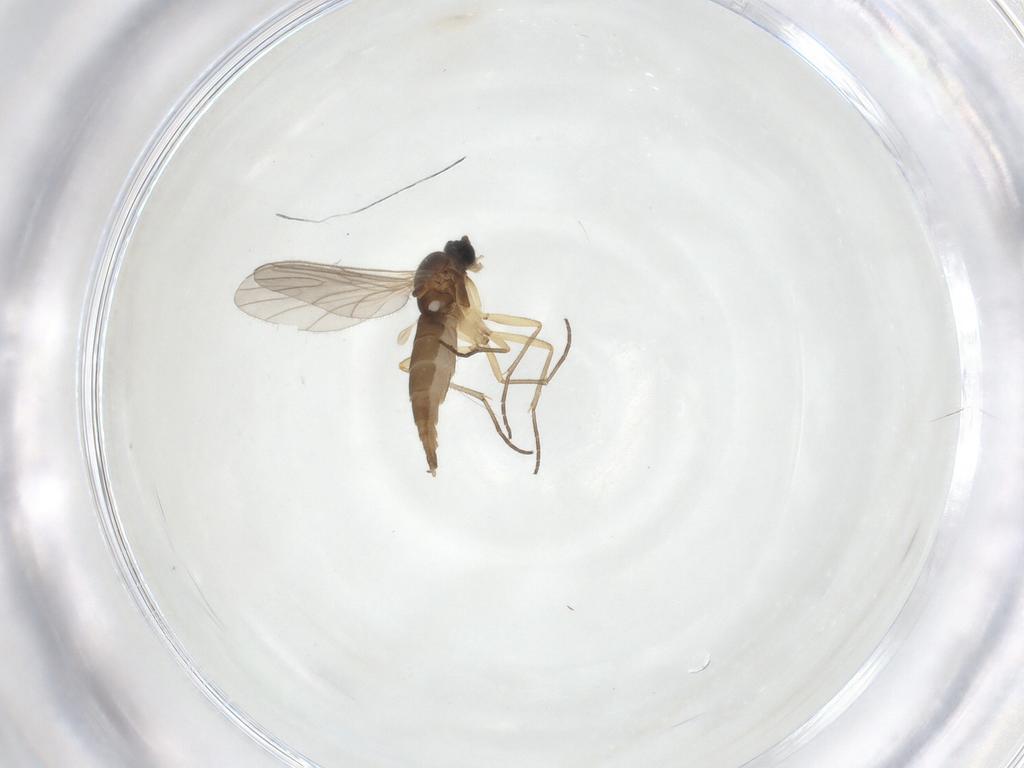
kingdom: Animalia
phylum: Arthropoda
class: Insecta
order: Diptera
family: Sciaridae
